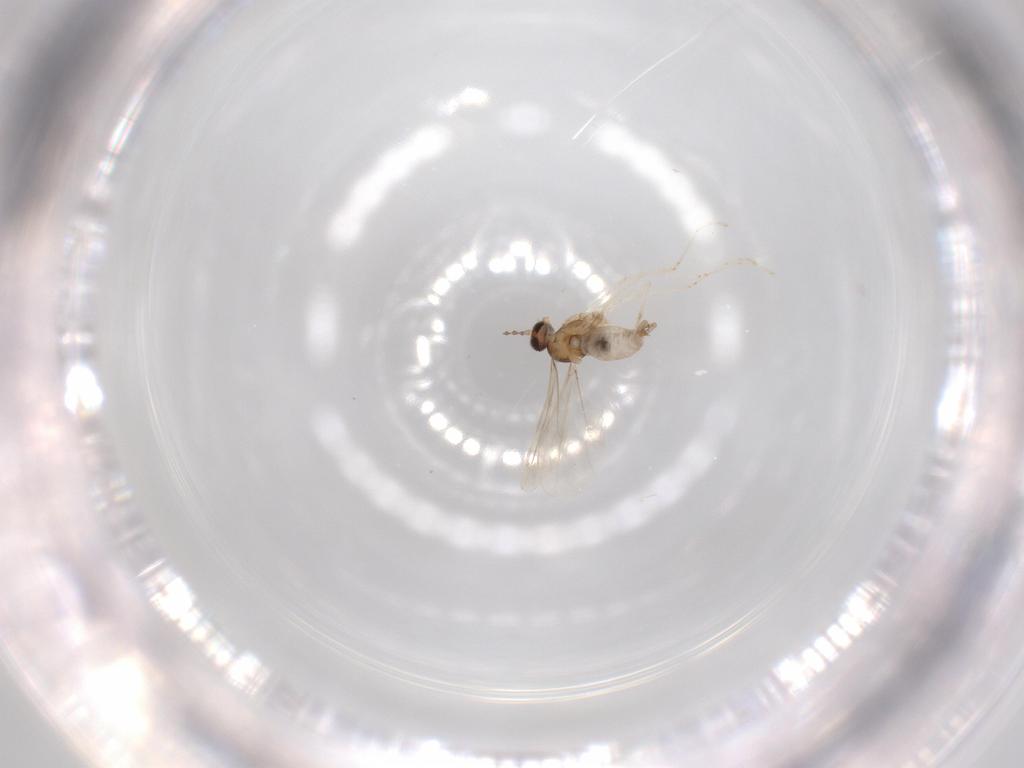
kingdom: Animalia
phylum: Arthropoda
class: Insecta
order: Diptera
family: Cecidomyiidae
